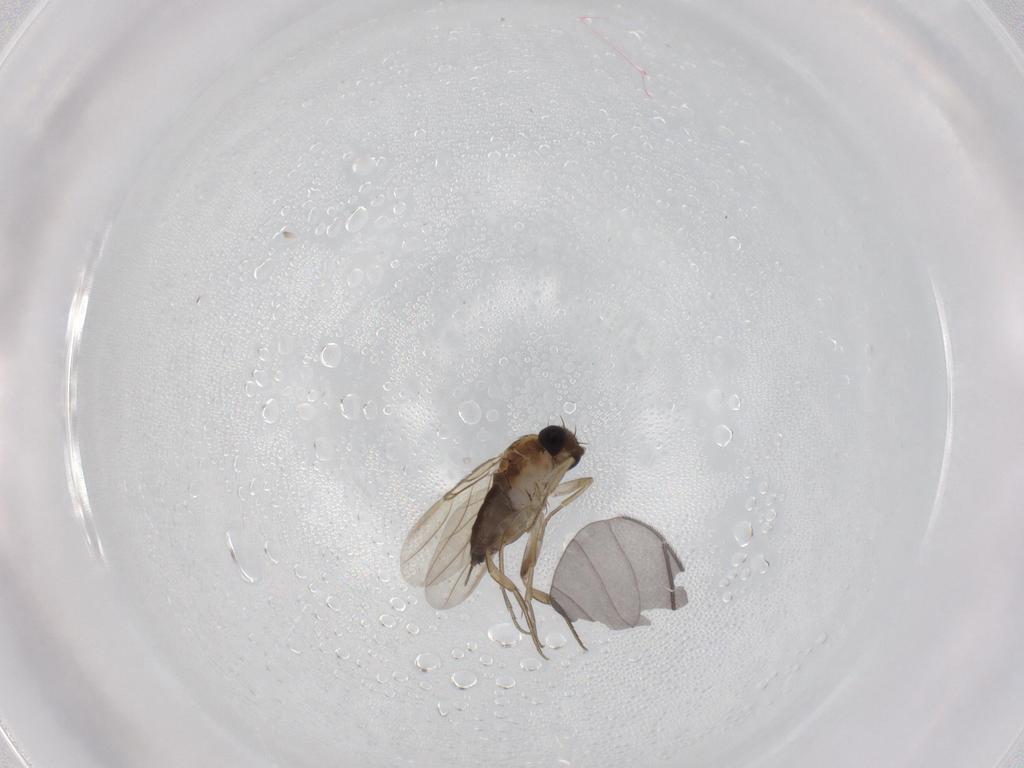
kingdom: Animalia
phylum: Arthropoda
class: Insecta
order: Diptera
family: Phoridae
